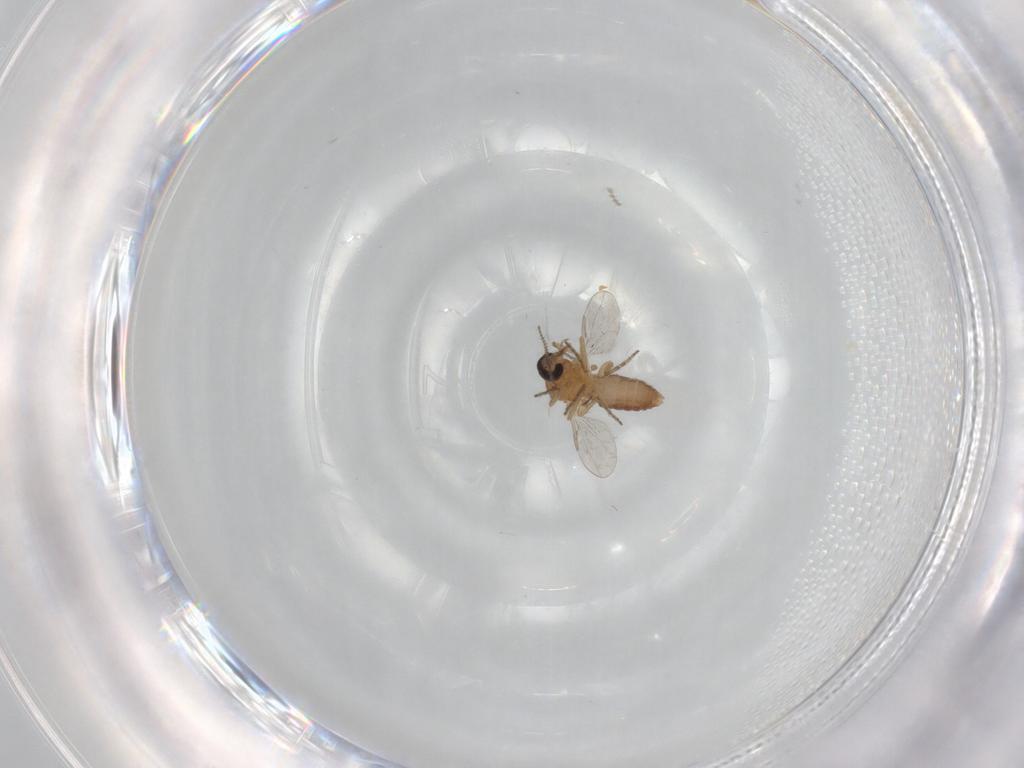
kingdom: Animalia
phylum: Arthropoda
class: Insecta
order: Diptera
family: Ceratopogonidae
